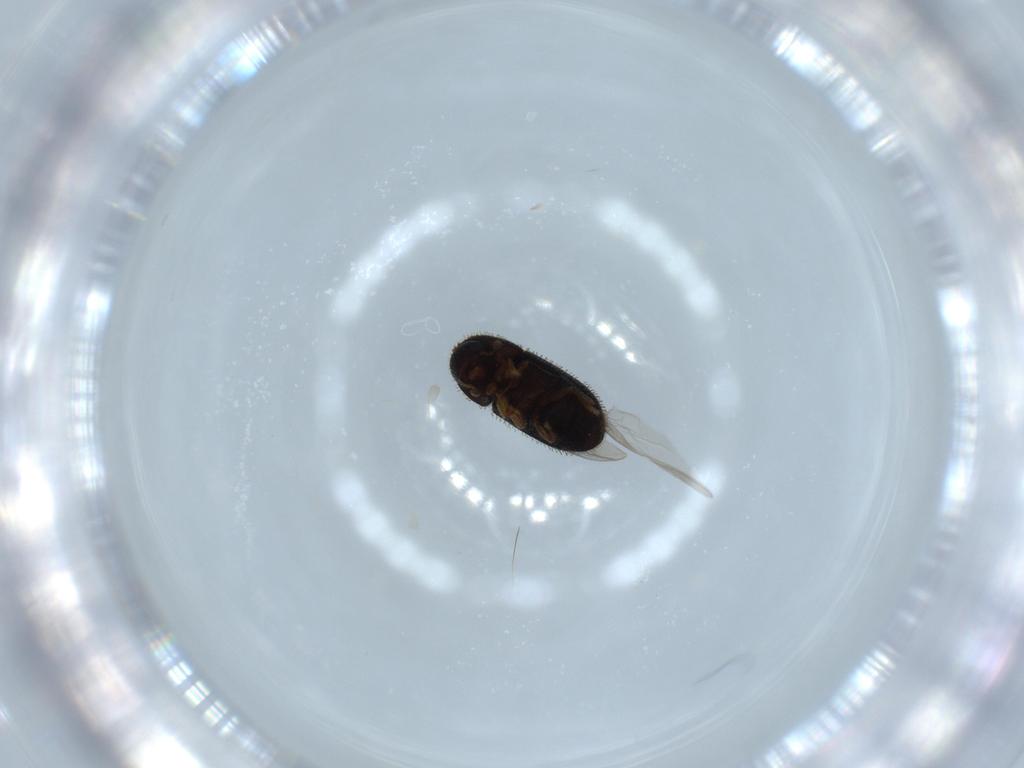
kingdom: Animalia
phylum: Arthropoda
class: Insecta
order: Coleoptera
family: Curculionidae
